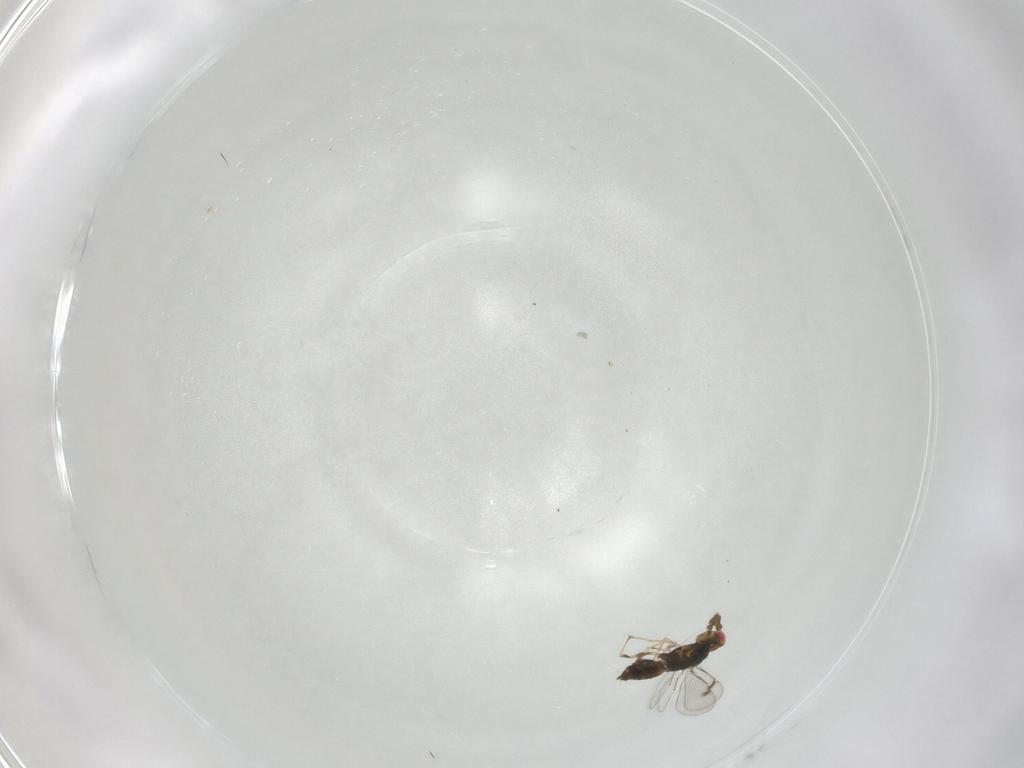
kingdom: Animalia
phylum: Arthropoda
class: Insecta
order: Hymenoptera
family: Eulophidae
